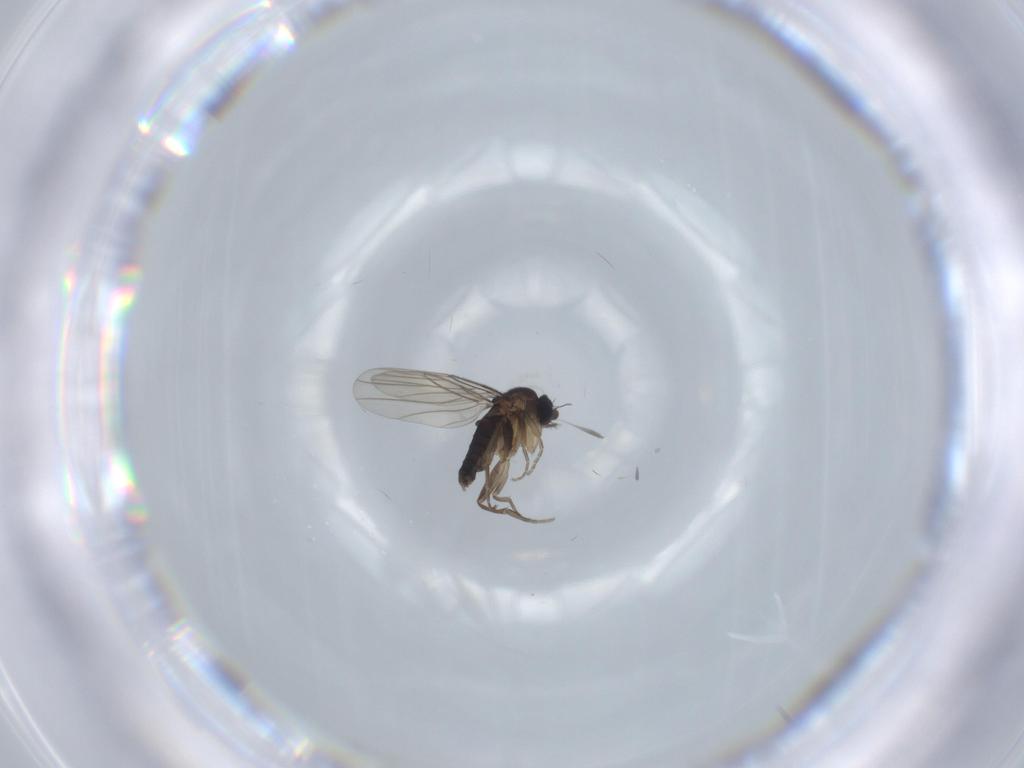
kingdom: Animalia
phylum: Arthropoda
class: Insecta
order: Diptera
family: Phoridae
